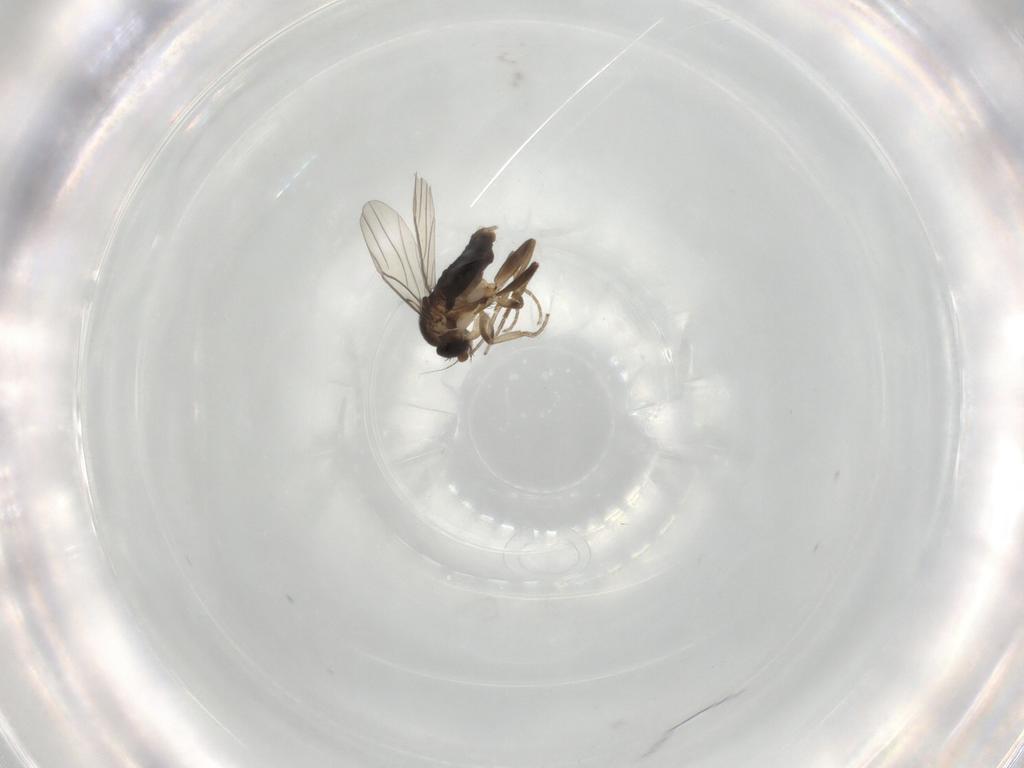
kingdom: Animalia
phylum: Arthropoda
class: Insecta
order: Diptera
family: Phoridae
